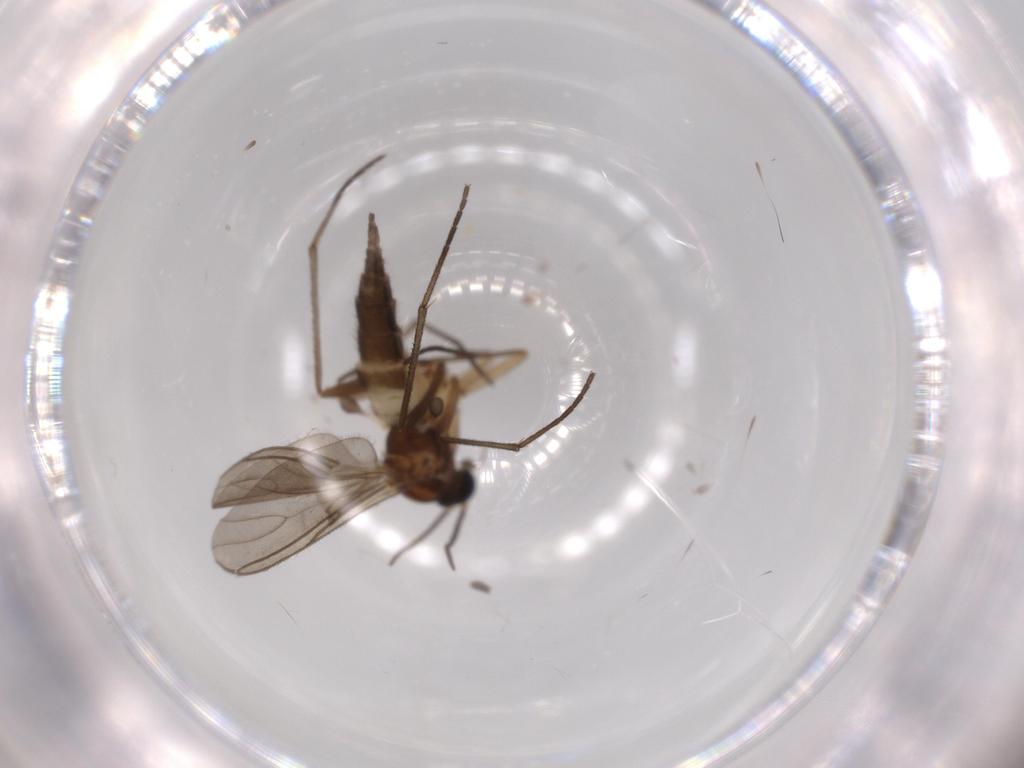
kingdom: Animalia
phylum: Arthropoda
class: Insecta
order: Diptera
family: Sciaridae
